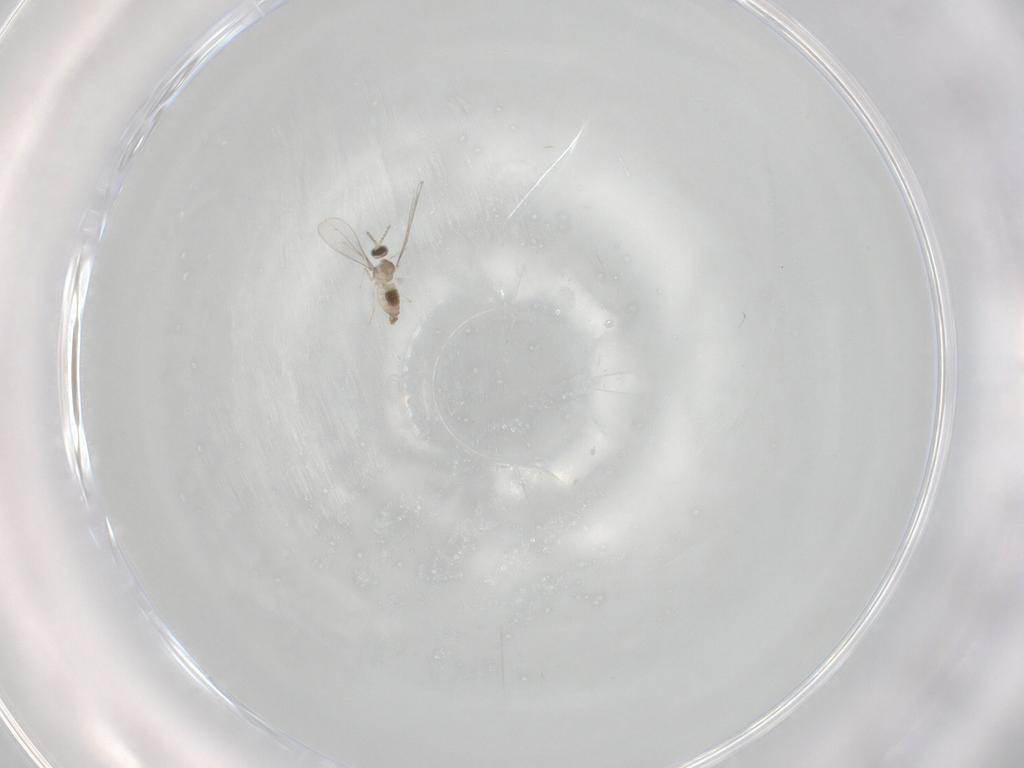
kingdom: Animalia
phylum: Arthropoda
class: Insecta
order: Diptera
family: Cecidomyiidae
